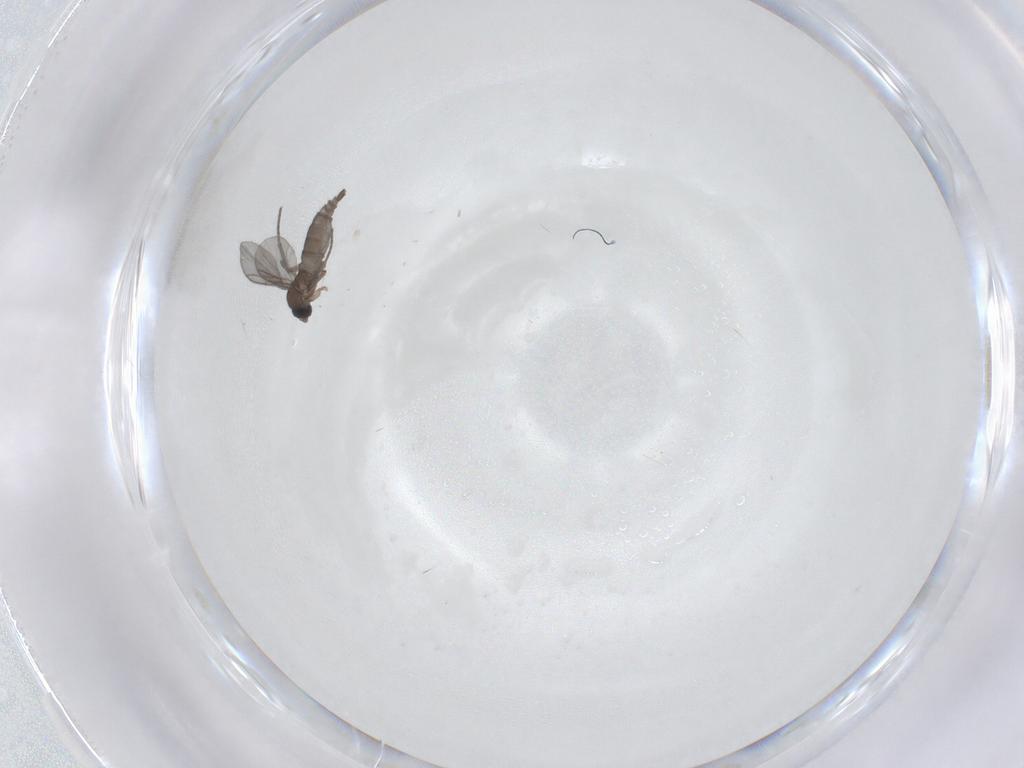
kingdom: Animalia
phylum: Arthropoda
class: Insecta
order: Diptera
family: Sciaridae
